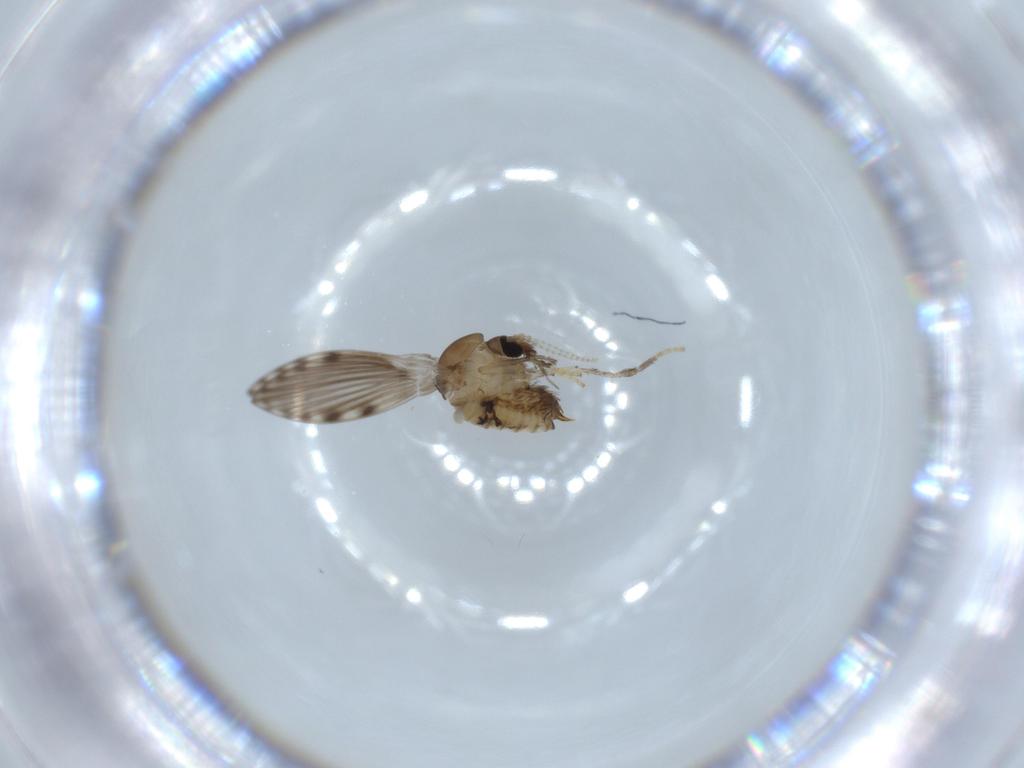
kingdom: Animalia
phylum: Arthropoda
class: Insecta
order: Diptera
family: Psychodidae
